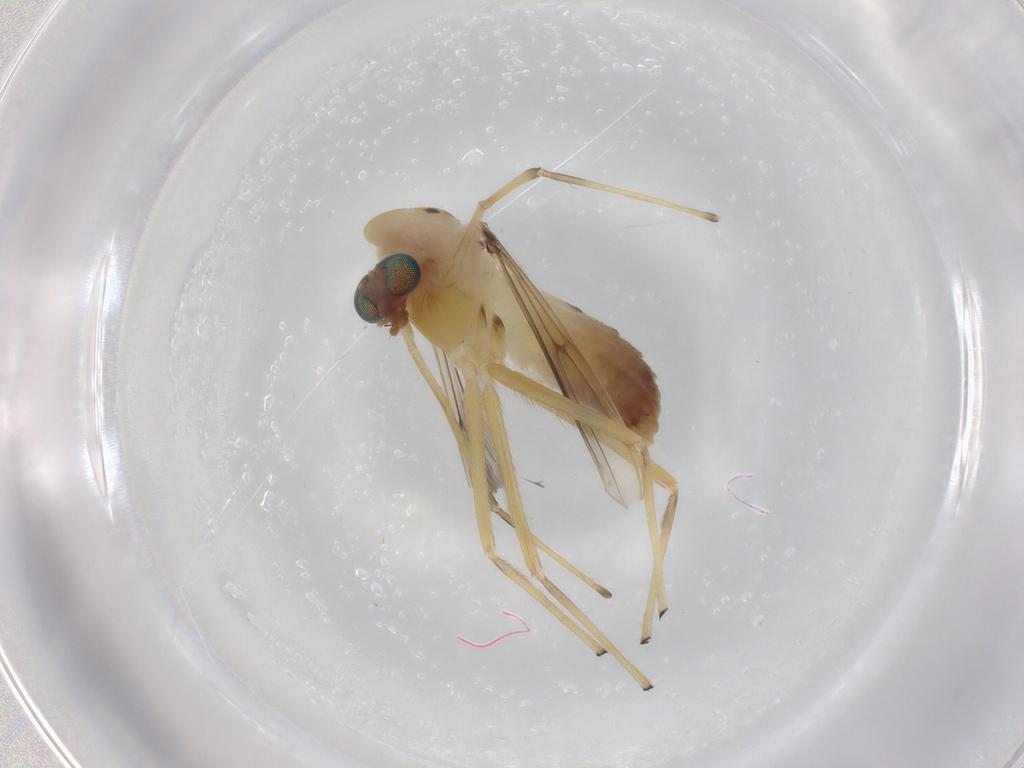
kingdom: Animalia
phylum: Arthropoda
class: Insecta
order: Diptera
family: Chironomidae
